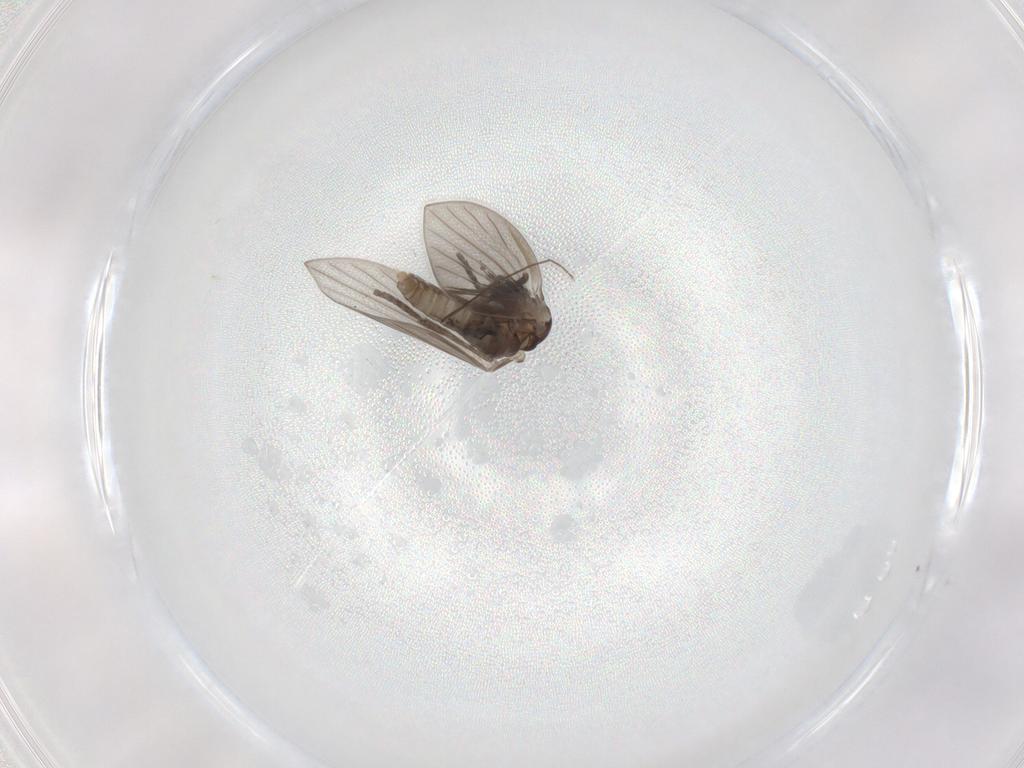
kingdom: Animalia
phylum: Arthropoda
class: Insecta
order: Diptera
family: Psychodidae
